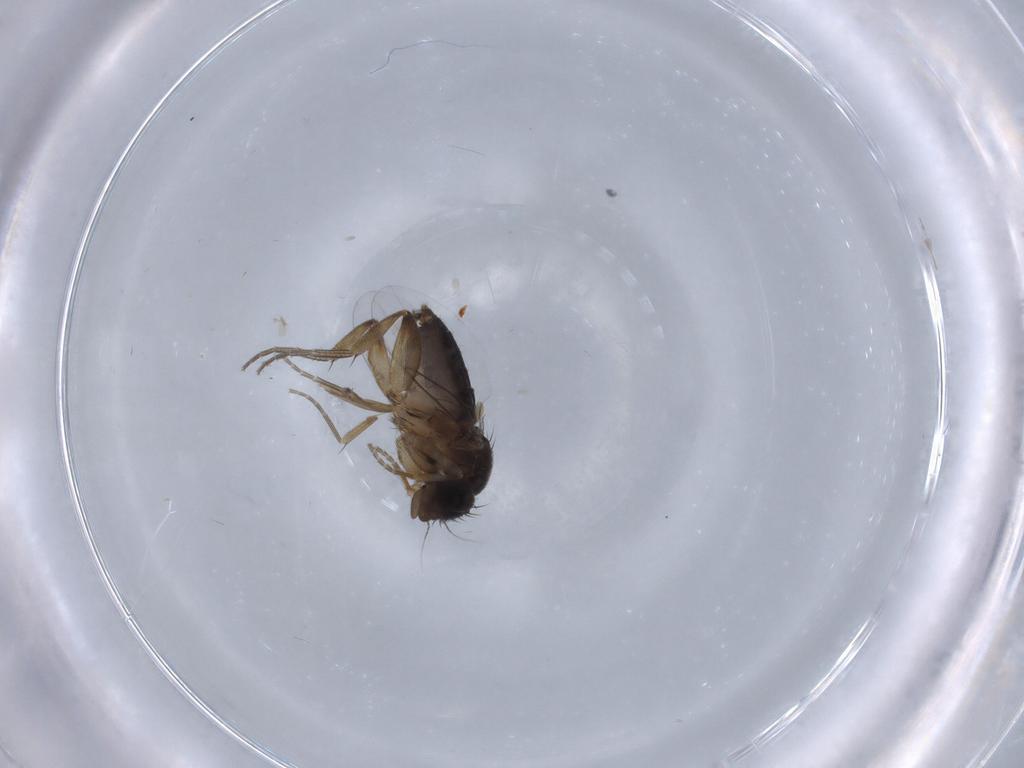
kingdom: Animalia
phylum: Arthropoda
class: Insecta
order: Diptera
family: Phoridae
